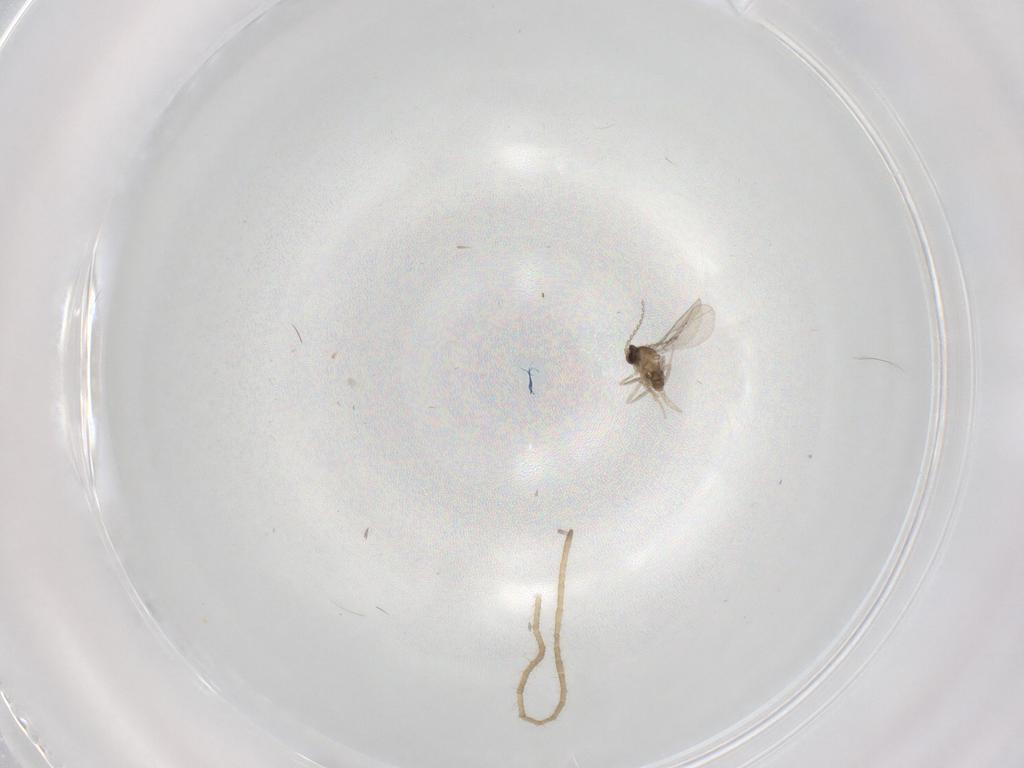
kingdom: Animalia
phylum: Arthropoda
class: Insecta
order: Diptera
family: Cecidomyiidae
